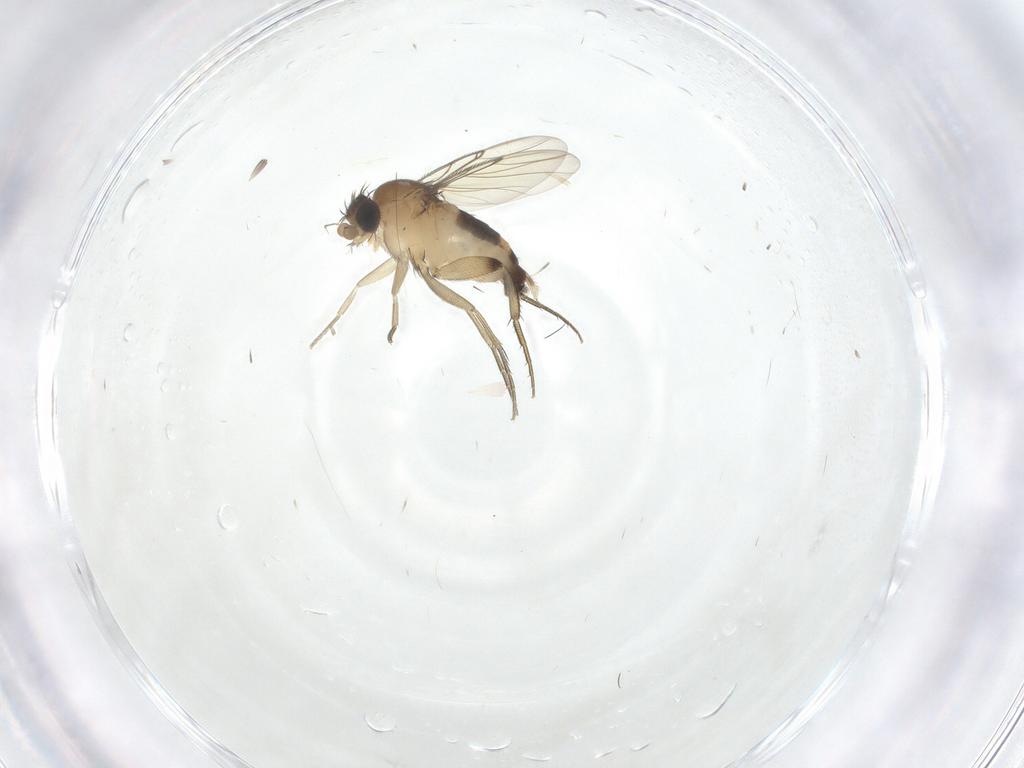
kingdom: Animalia
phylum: Arthropoda
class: Insecta
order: Diptera
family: Phoridae
